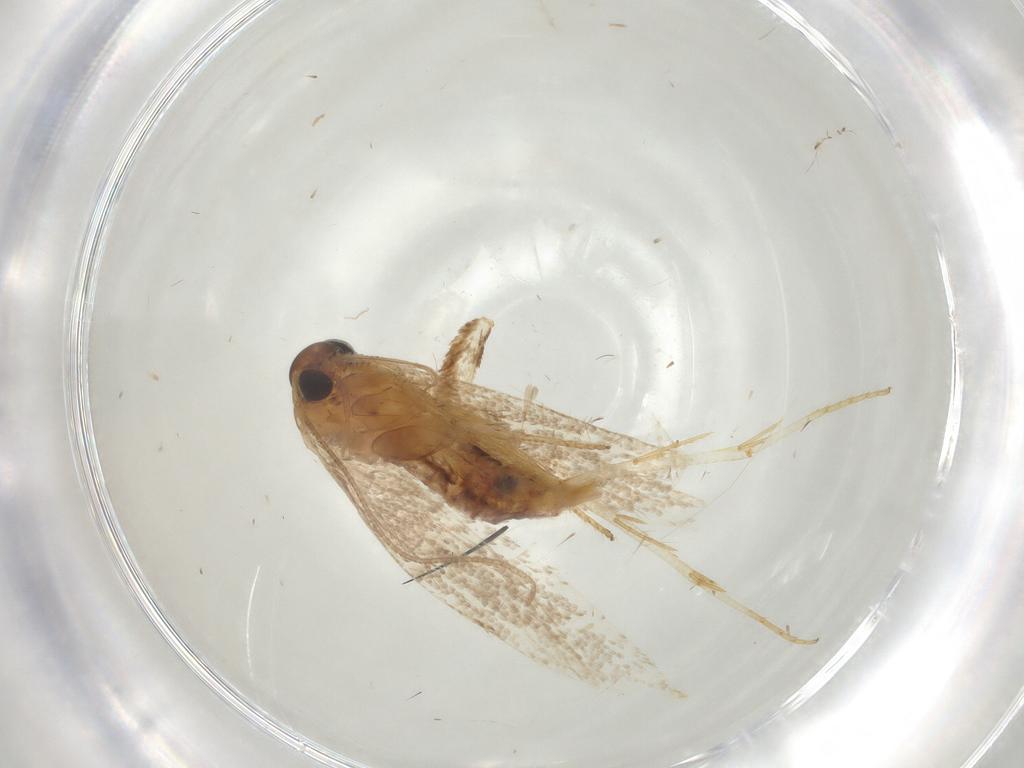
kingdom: Animalia
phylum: Arthropoda
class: Insecta
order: Lepidoptera
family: Blastobasidae
